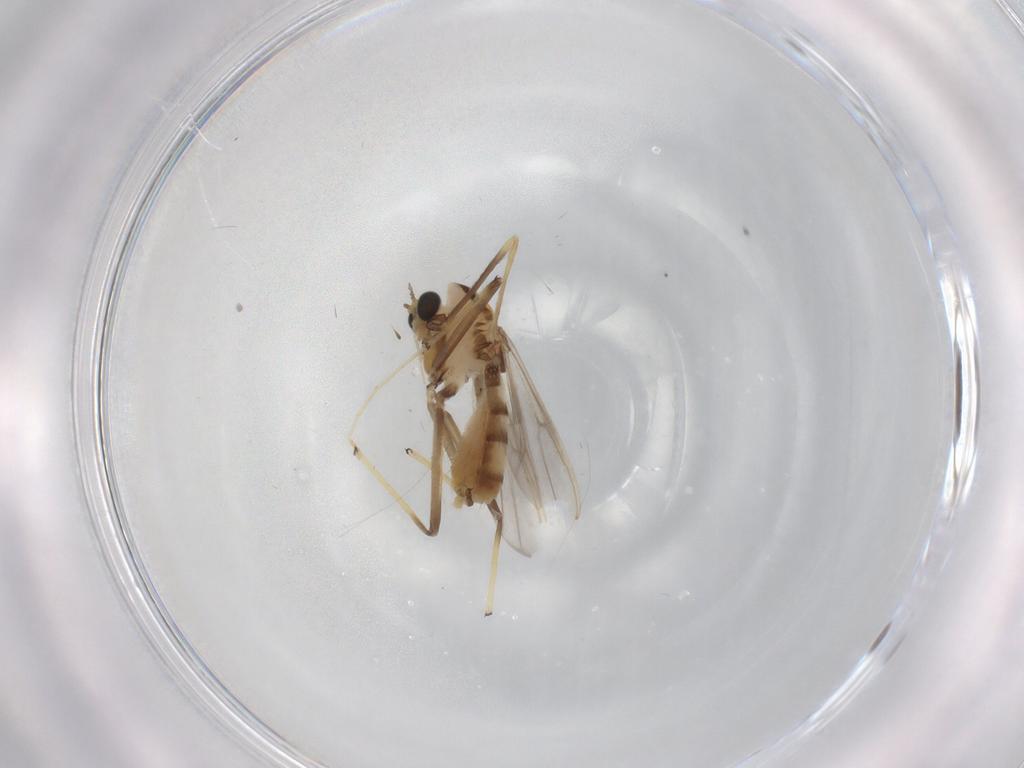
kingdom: Animalia
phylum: Arthropoda
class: Insecta
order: Diptera
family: Chironomidae
